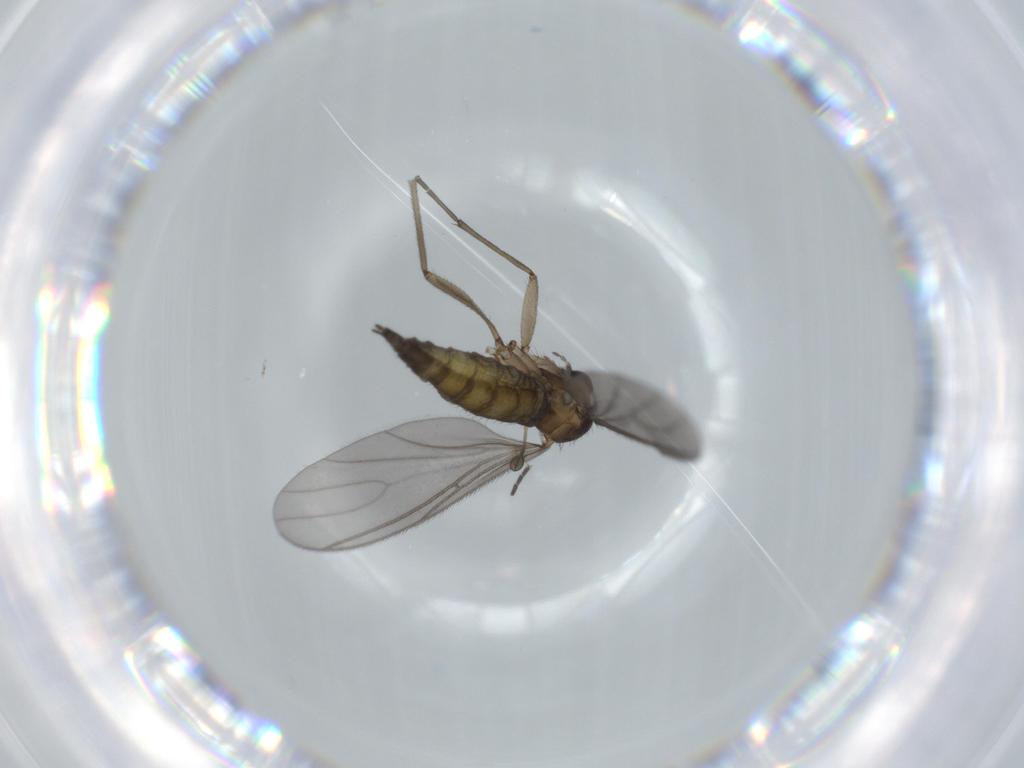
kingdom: Animalia
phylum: Arthropoda
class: Insecta
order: Diptera
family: Sciaridae
